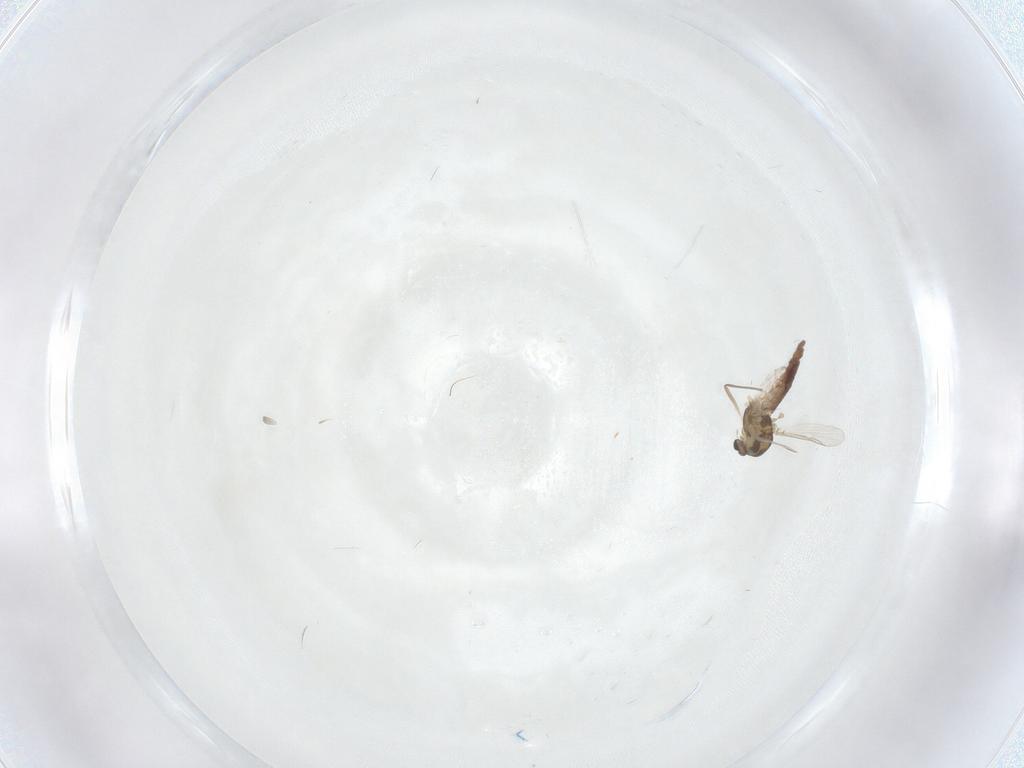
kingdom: Animalia
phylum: Arthropoda
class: Insecta
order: Diptera
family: Chironomidae
